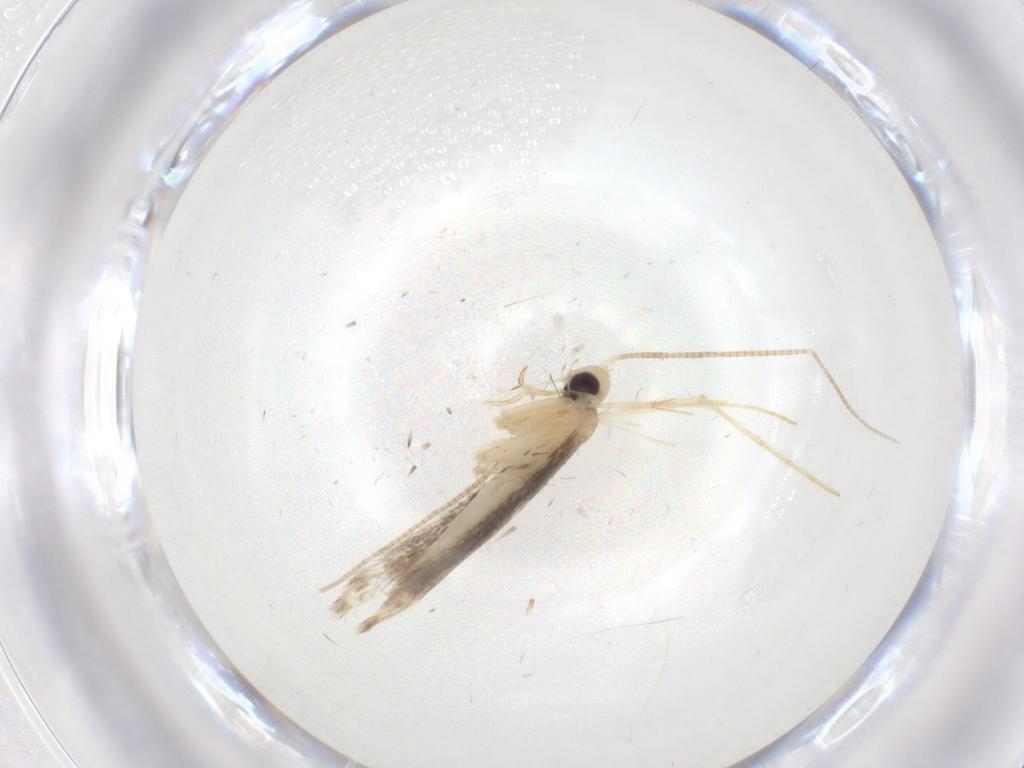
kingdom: Animalia
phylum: Arthropoda
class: Insecta
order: Lepidoptera
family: Gracillariidae
